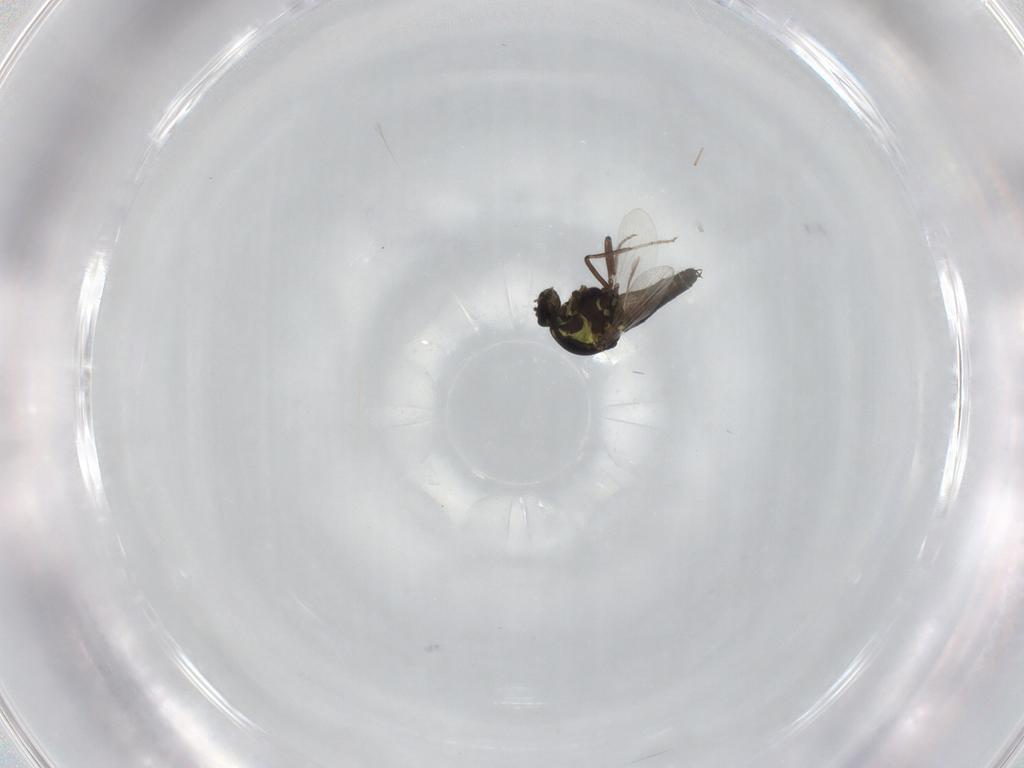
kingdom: Animalia
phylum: Arthropoda
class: Insecta
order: Diptera
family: Ceratopogonidae
